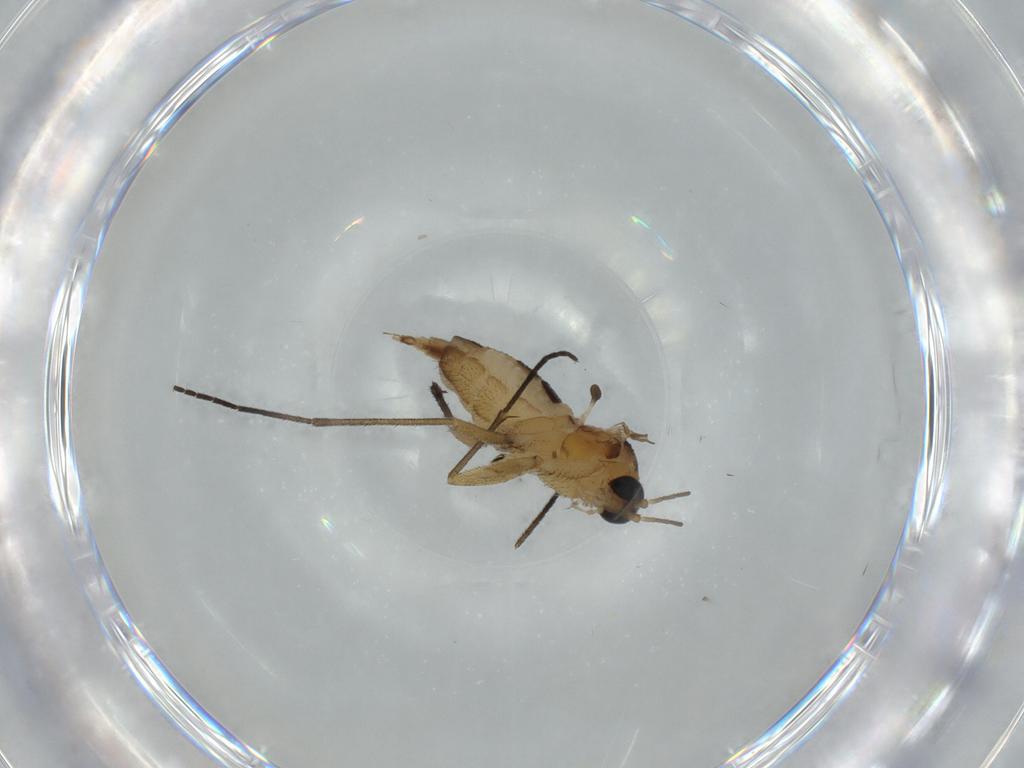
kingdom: Animalia
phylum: Arthropoda
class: Insecta
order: Diptera
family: Sciaridae
